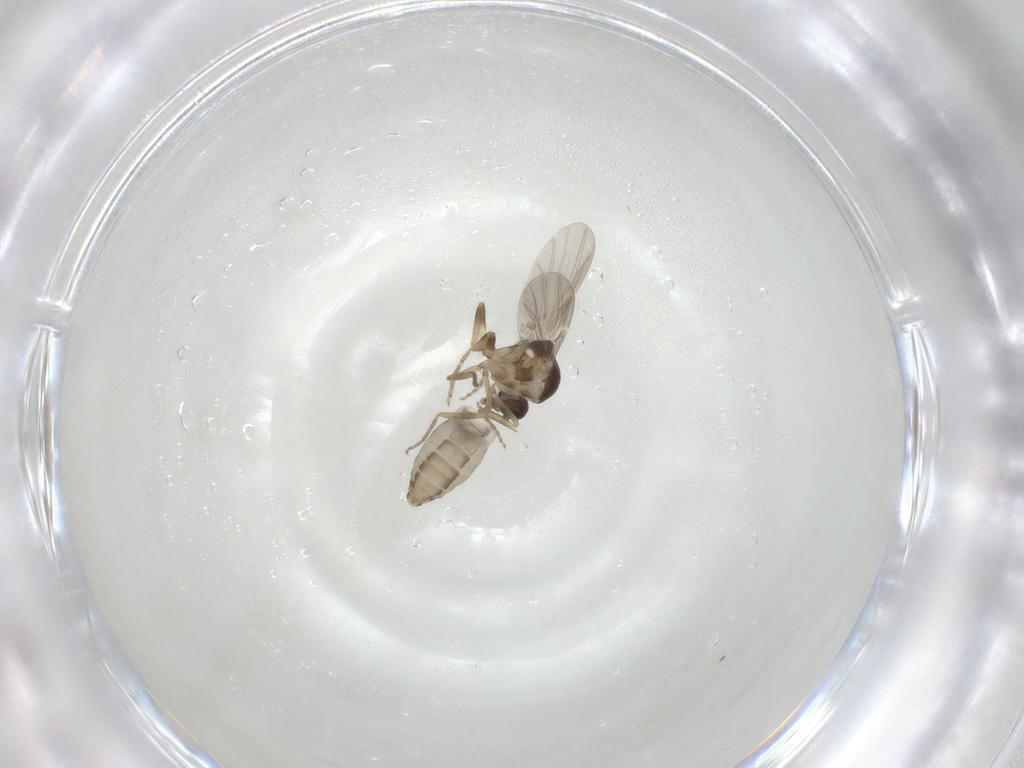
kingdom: Animalia
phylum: Arthropoda
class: Insecta
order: Diptera
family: Ceratopogonidae
